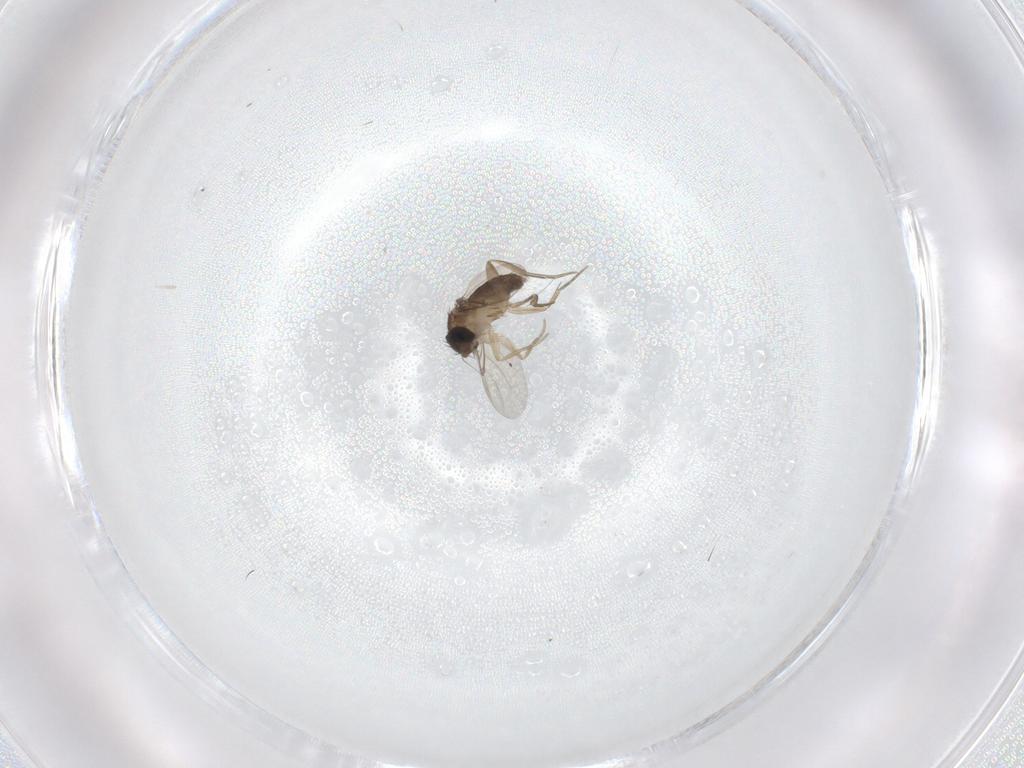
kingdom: Animalia
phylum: Arthropoda
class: Insecta
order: Diptera
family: Phoridae
